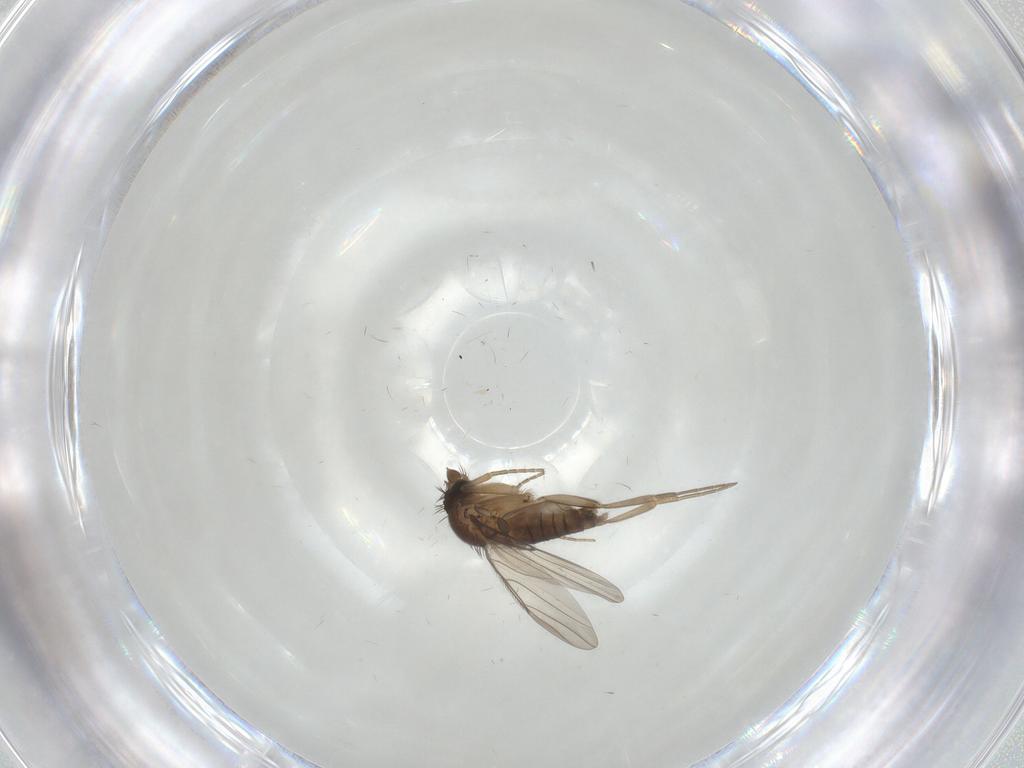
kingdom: Animalia
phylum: Arthropoda
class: Insecta
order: Diptera
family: Phoridae
